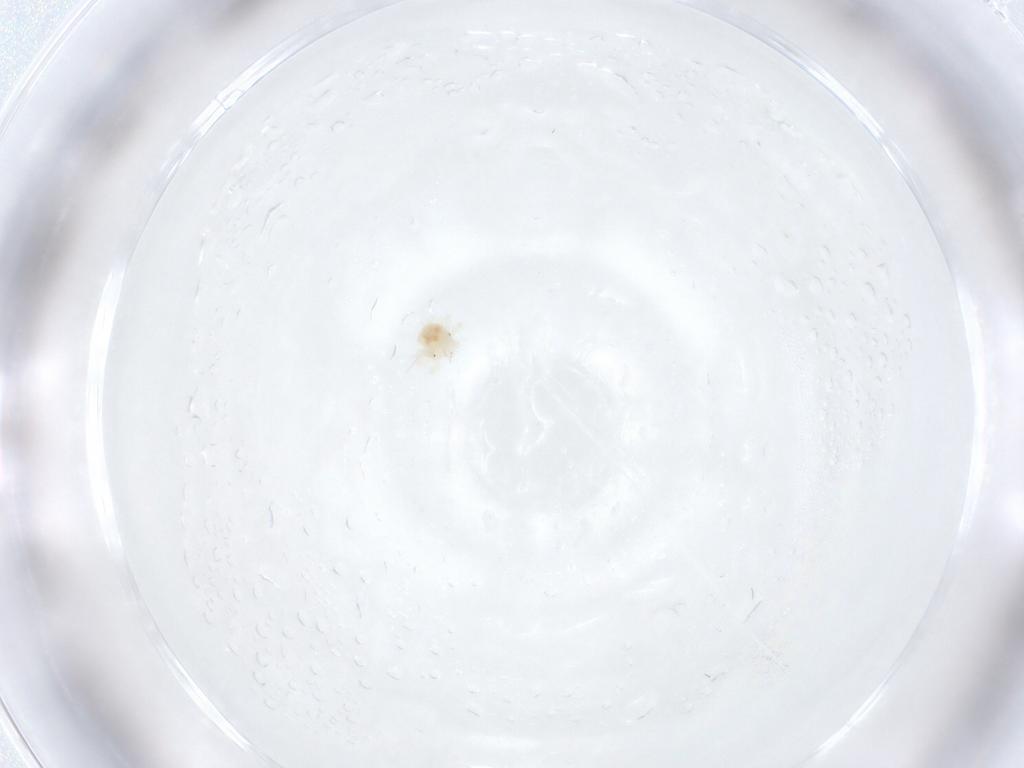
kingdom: Animalia
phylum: Arthropoda
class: Arachnida
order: Trombidiformes
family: Anystidae
